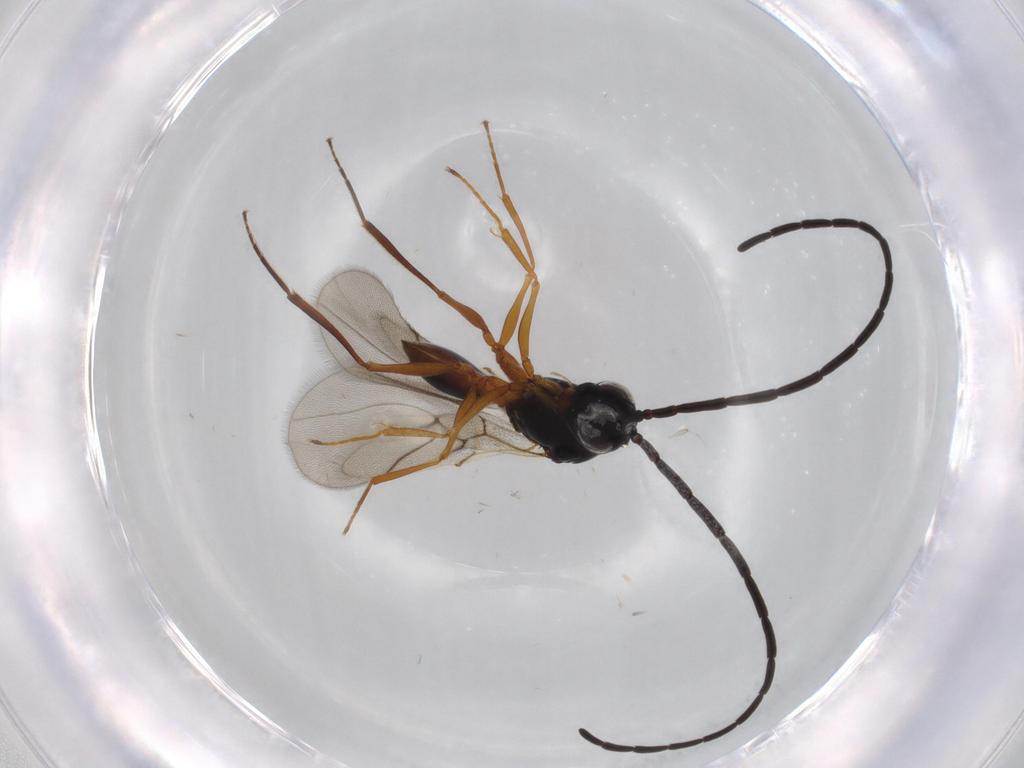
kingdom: Animalia
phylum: Arthropoda
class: Insecta
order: Hymenoptera
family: Figitidae
